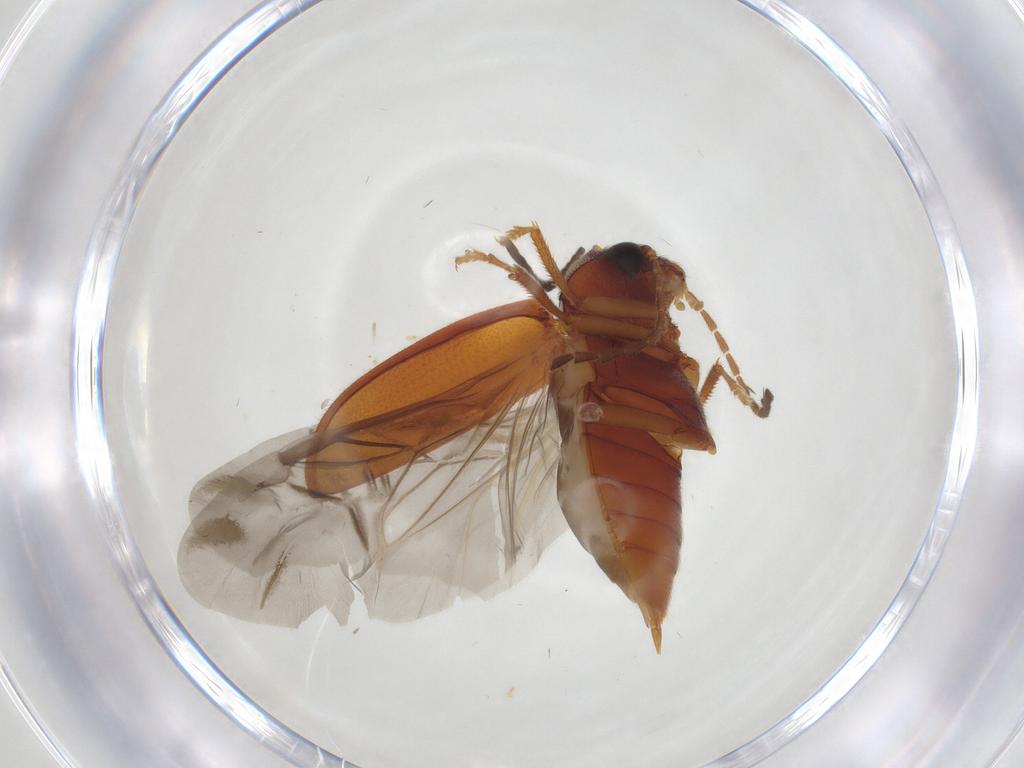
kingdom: Animalia
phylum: Arthropoda
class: Insecta
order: Coleoptera
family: Ptilodactylidae
